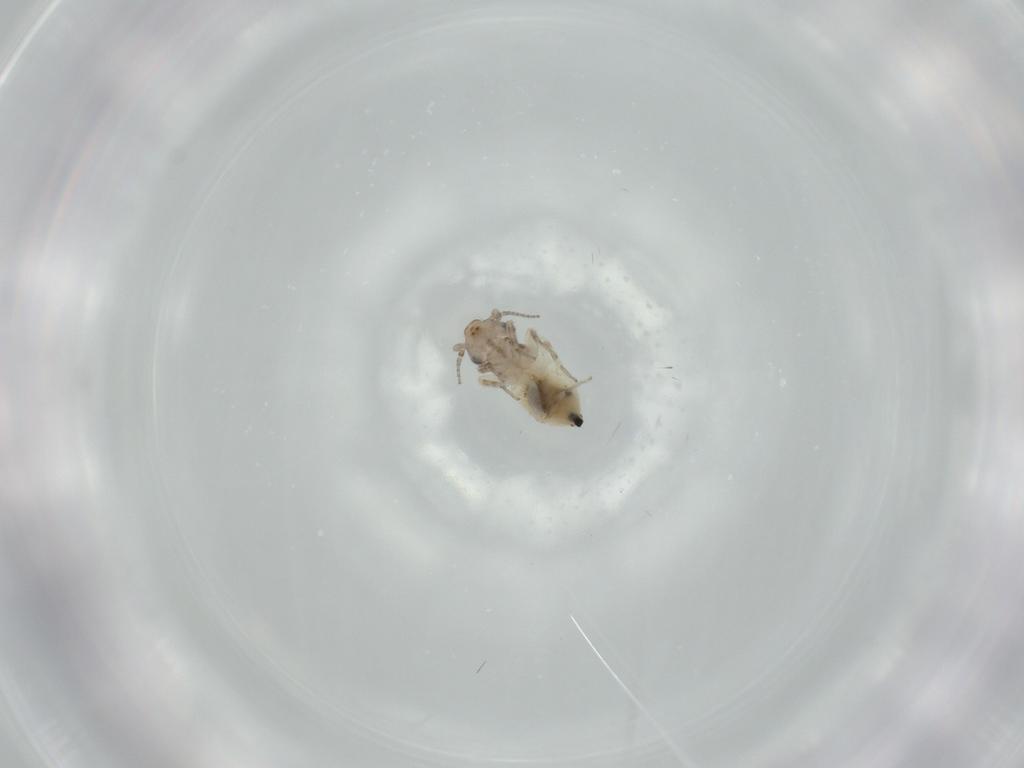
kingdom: Animalia
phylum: Arthropoda
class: Insecta
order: Psocodea
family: Lepidopsocidae
